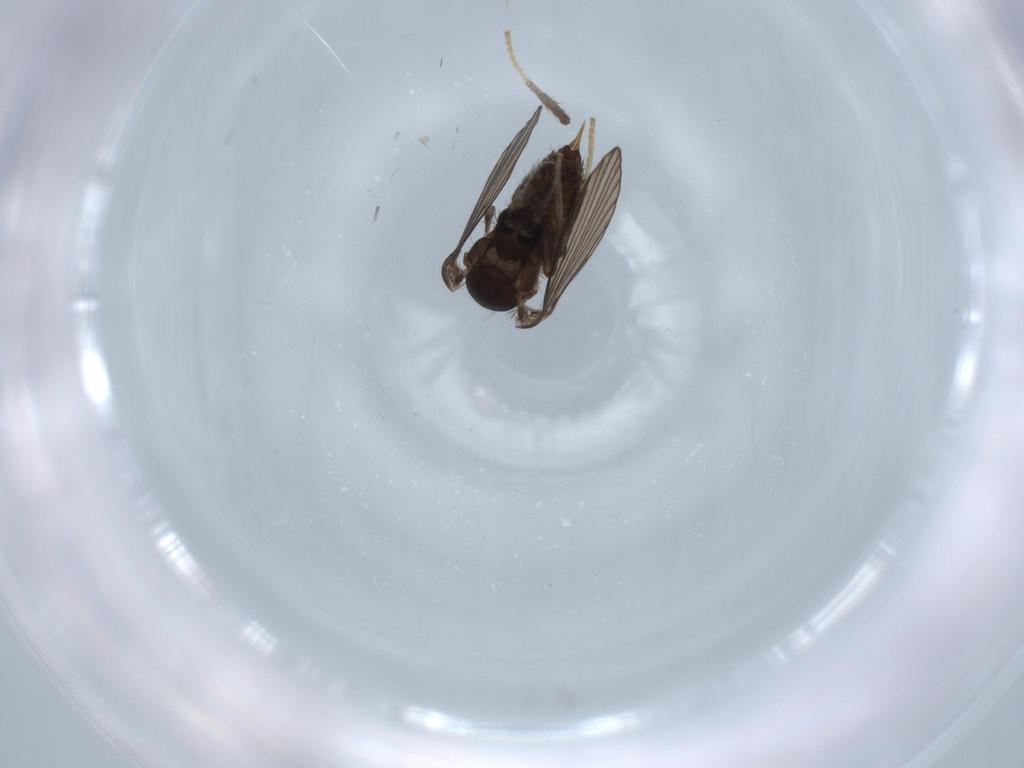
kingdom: Animalia
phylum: Arthropoda
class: Insecta
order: Diptera
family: Psychodidae
